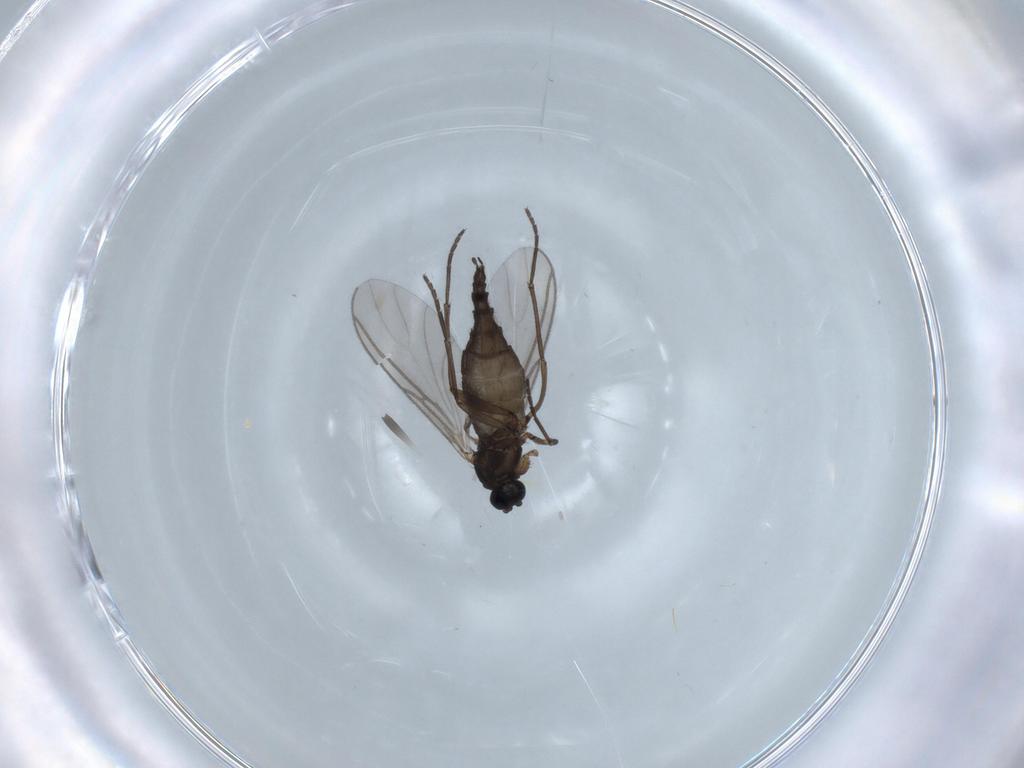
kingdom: Animalia
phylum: Arthropoda
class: Insecta
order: Diptera
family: Sciaridae
